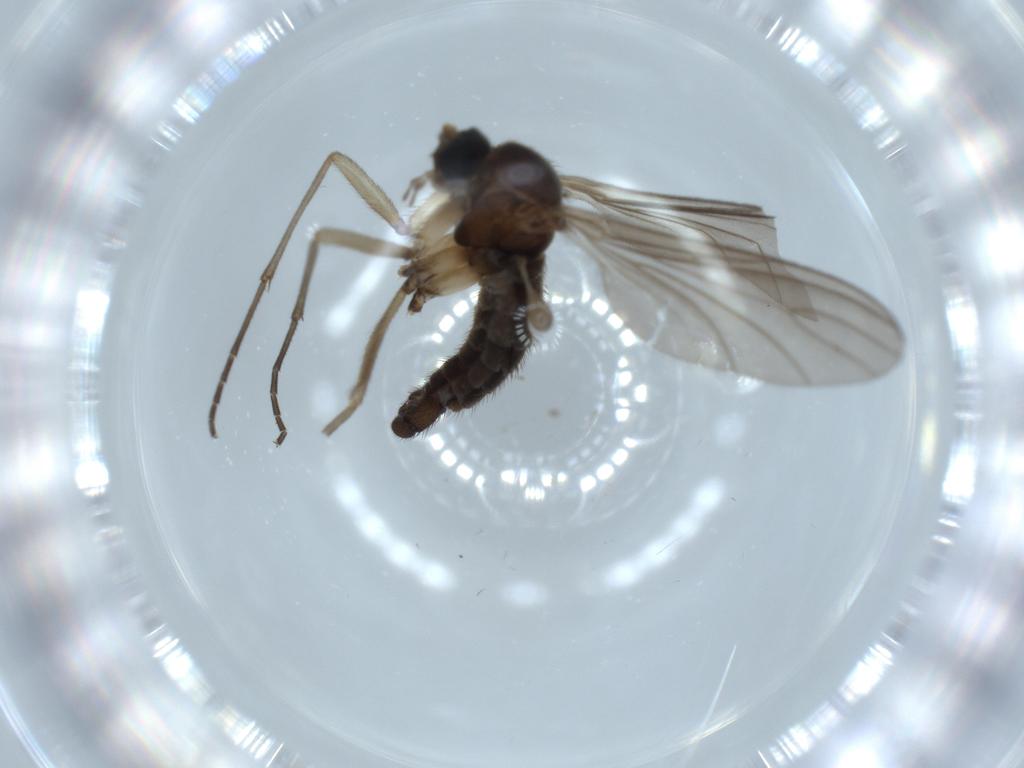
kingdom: Animalia
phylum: Arthropoda
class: Insecta
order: Diptera
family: Sciaridae
